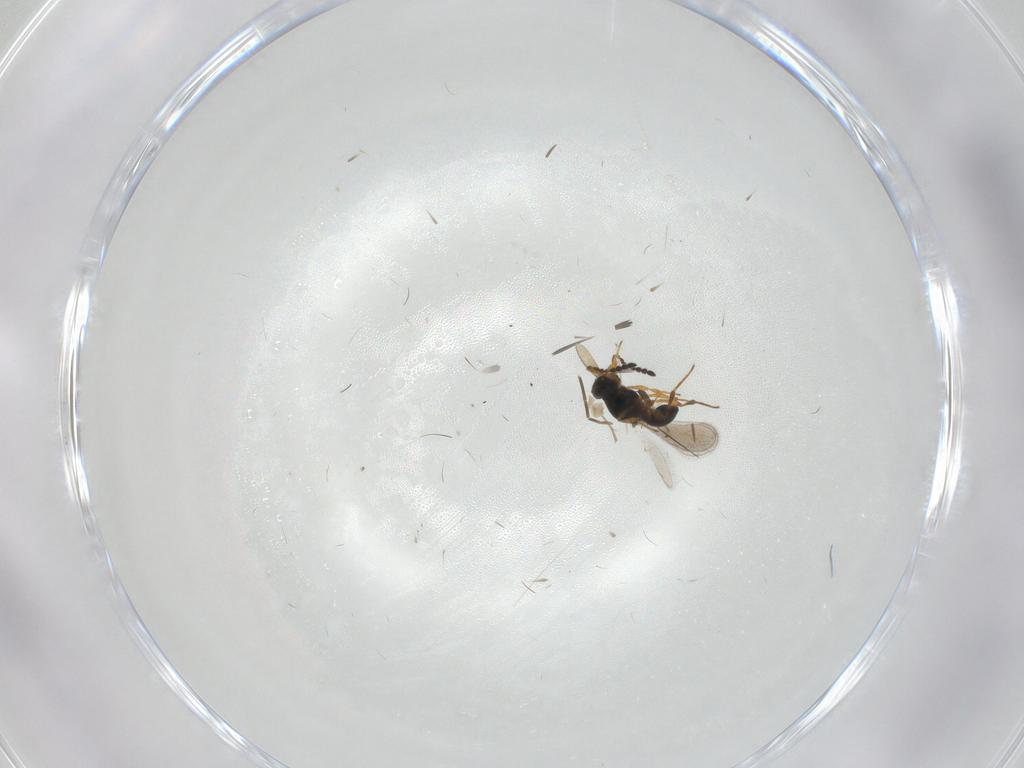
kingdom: Animalia
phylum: Arthropoda
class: Insecta
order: Hymenoptera
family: Platygastridae
